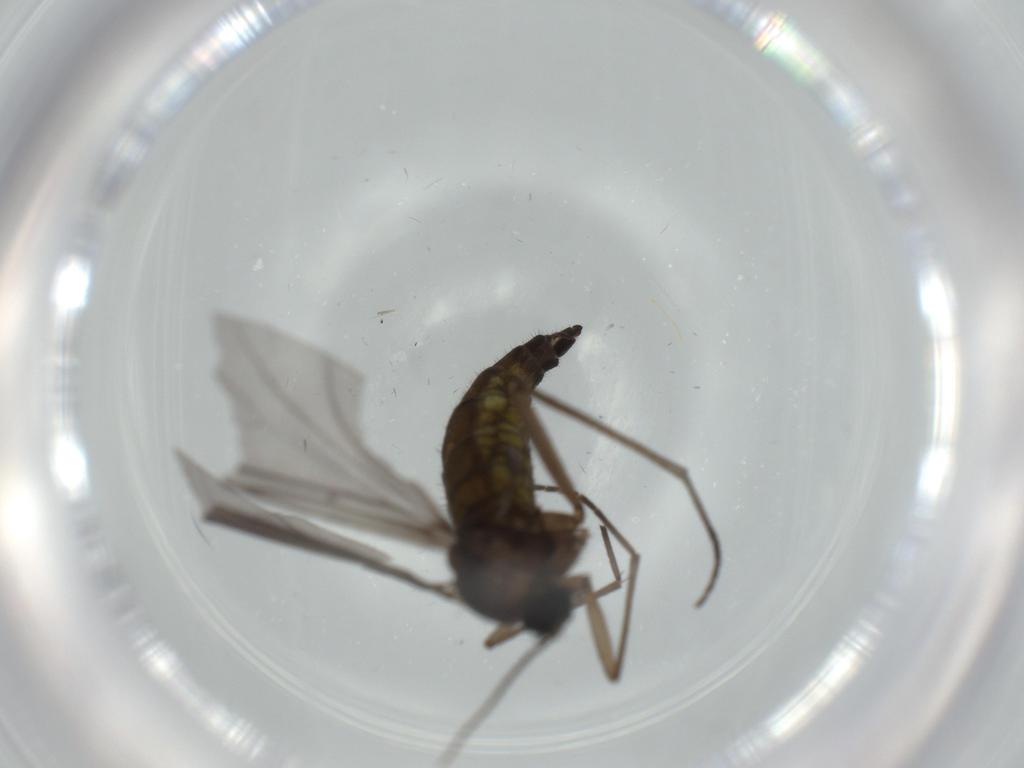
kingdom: Animalia
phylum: Arthropoda
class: Insecta
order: Diptera
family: Sciaridae
